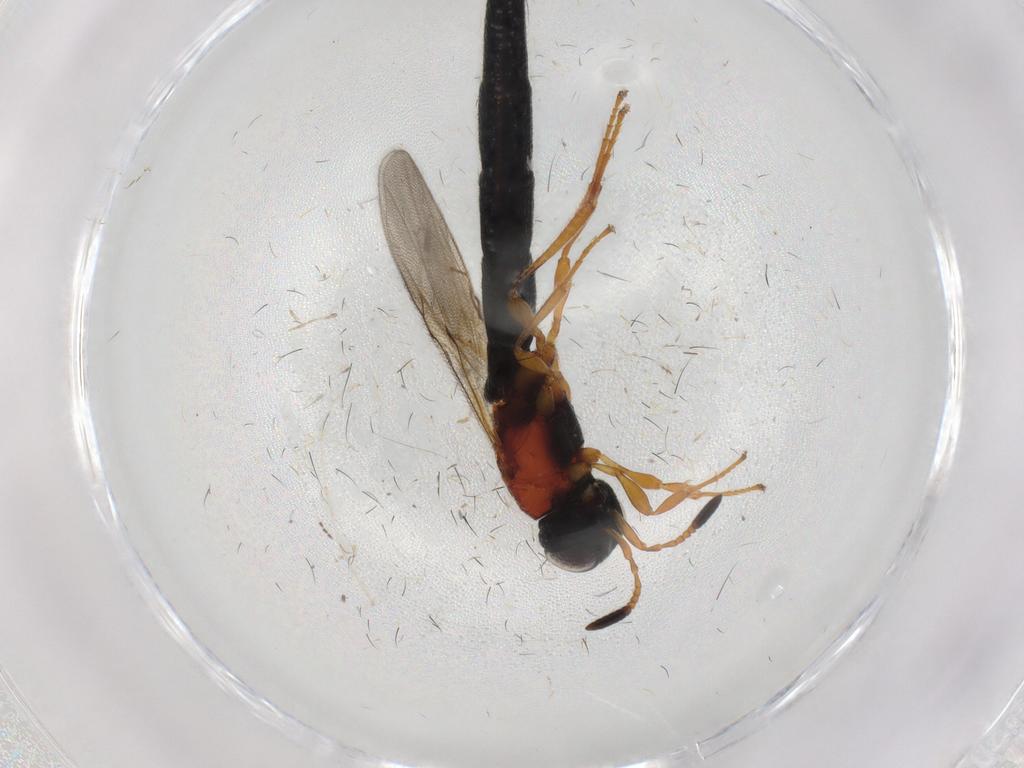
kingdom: Animalia
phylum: Arthropoda
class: Insecta
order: Hymenoptera
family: Scelionidae
